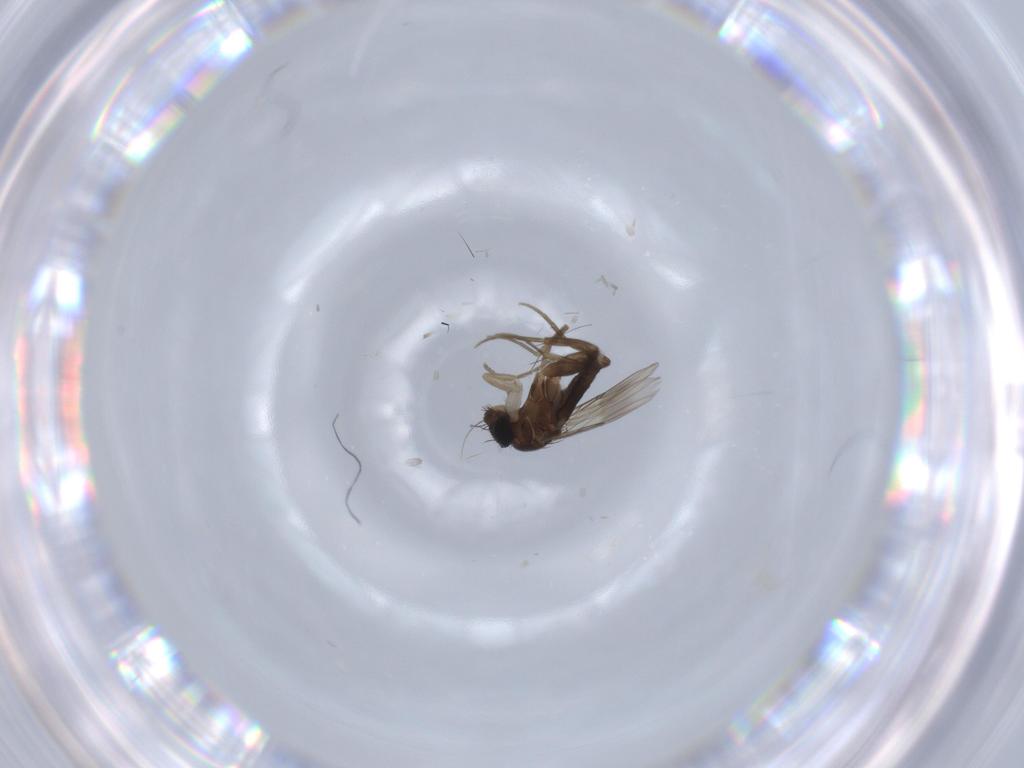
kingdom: Animalia
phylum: Arthropoda
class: Insecta
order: Diptera
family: Phoridae
